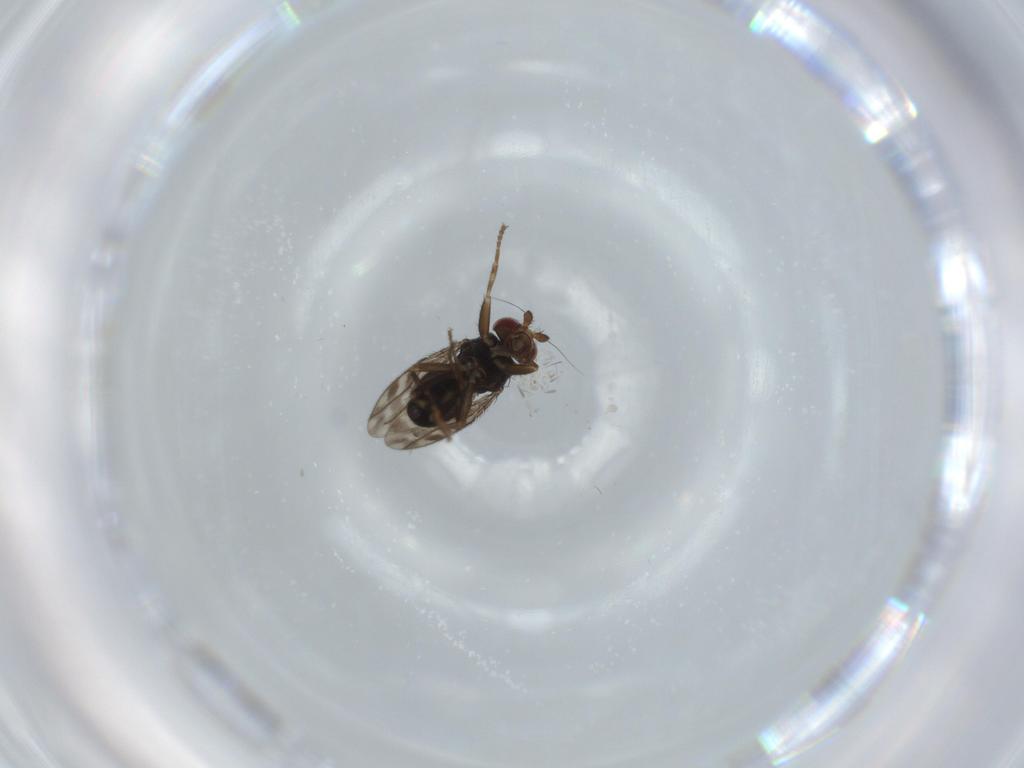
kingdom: Animalia
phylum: Arthropoda
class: Insecta
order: Diptera
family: Sphaeroceridae
